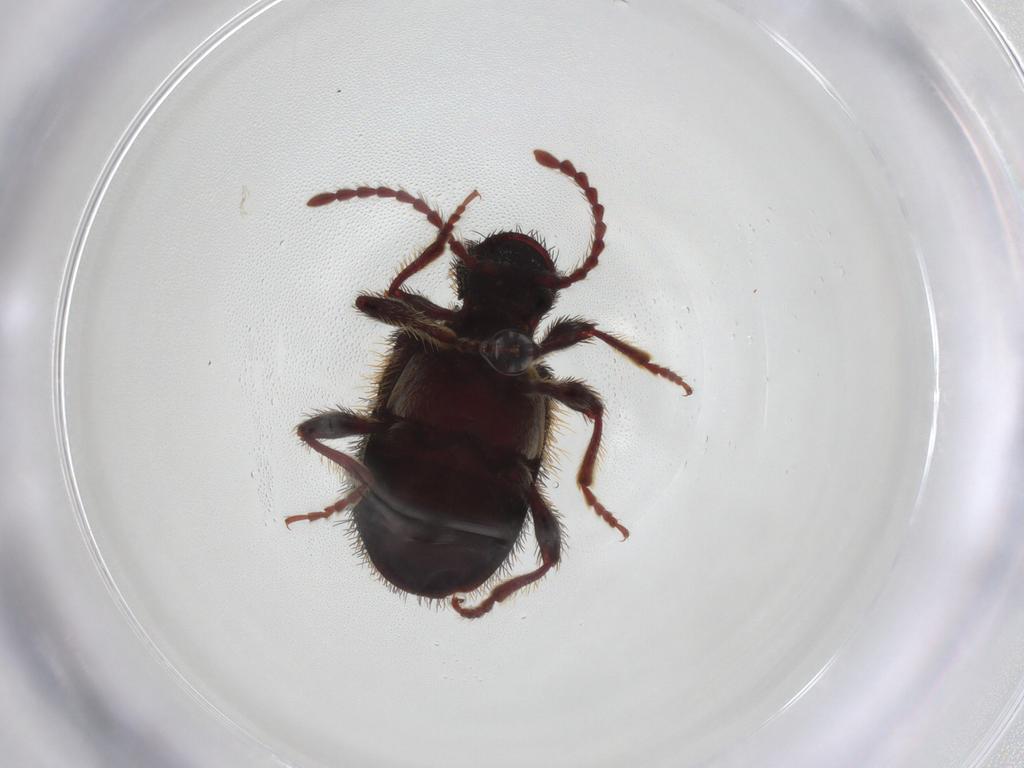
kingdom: Animalia
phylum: Arthropoda
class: Insecta
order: Coleoptera
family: Ptinidae
